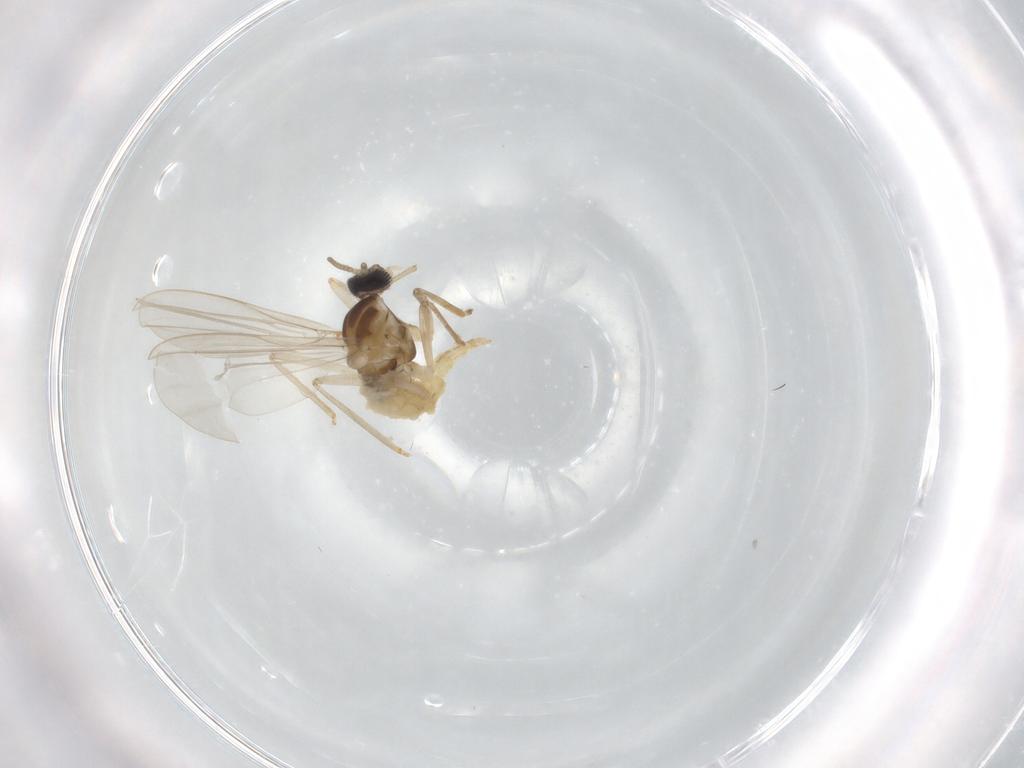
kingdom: Animalia
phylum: Arthropoda
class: Insecta
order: Diptera
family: Cecidomyiidae
